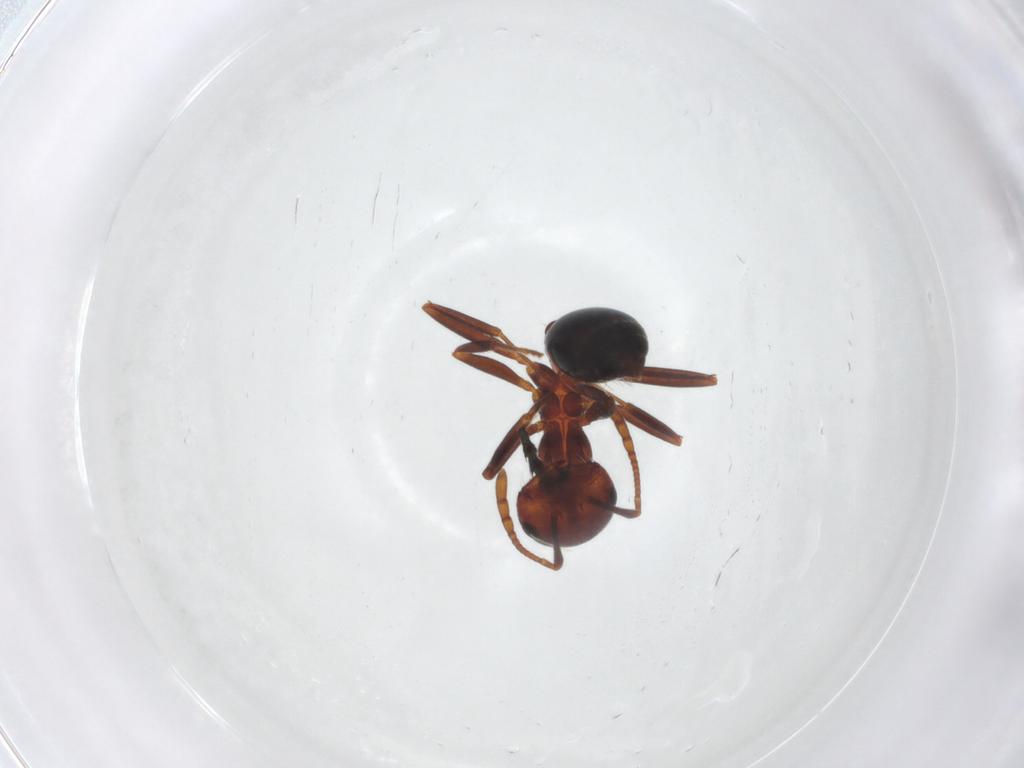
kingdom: Animalia
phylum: Arthropoda
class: Insecta
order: Hymenoptera
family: Formicidae
